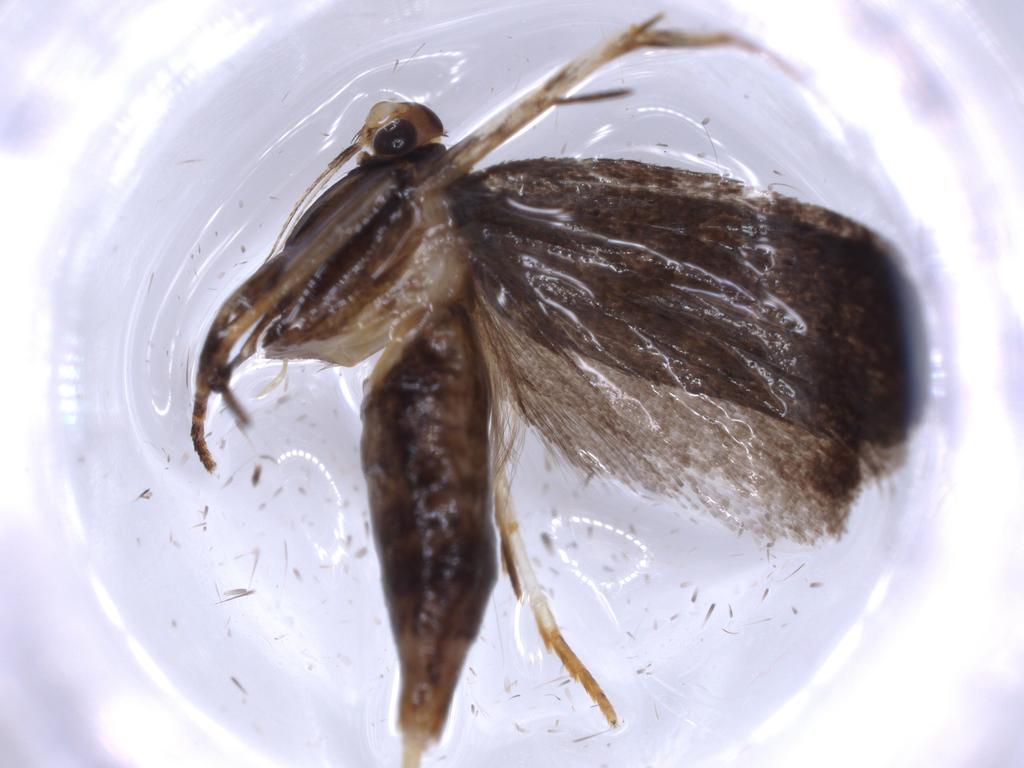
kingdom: Animalia
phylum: Arthropoda
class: Insecta
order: Lepidoptera
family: Lecithoceridae
